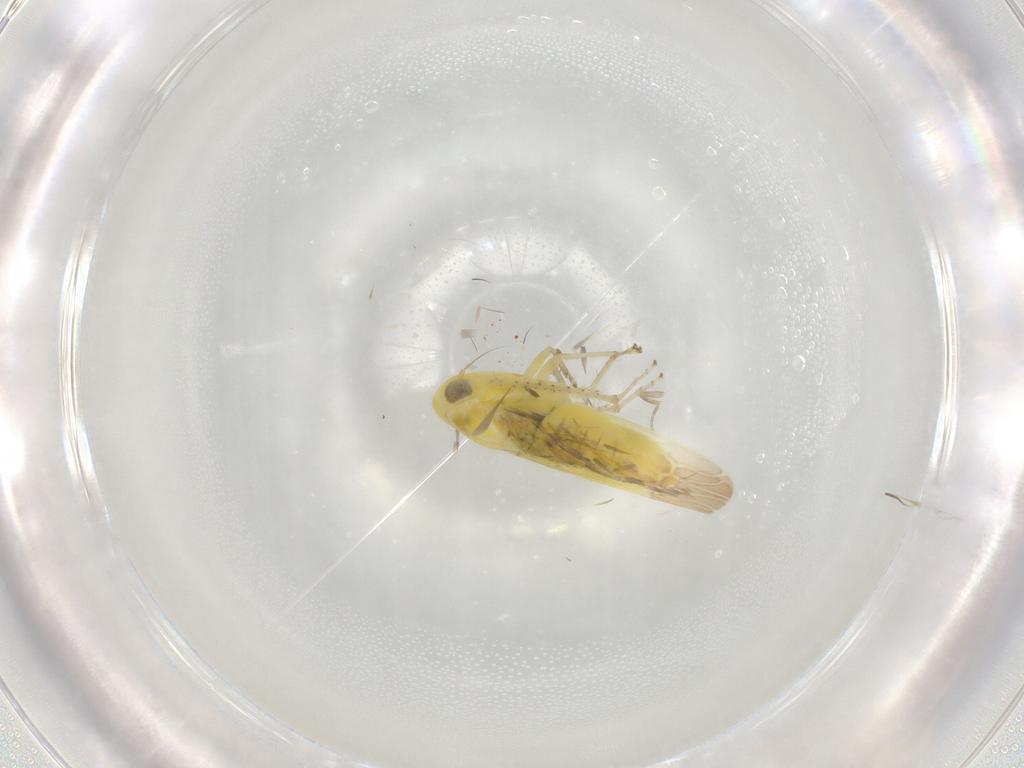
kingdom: Animalia
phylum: Arthropoda
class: Insecta
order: Hemiptera
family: Cicadellidae
